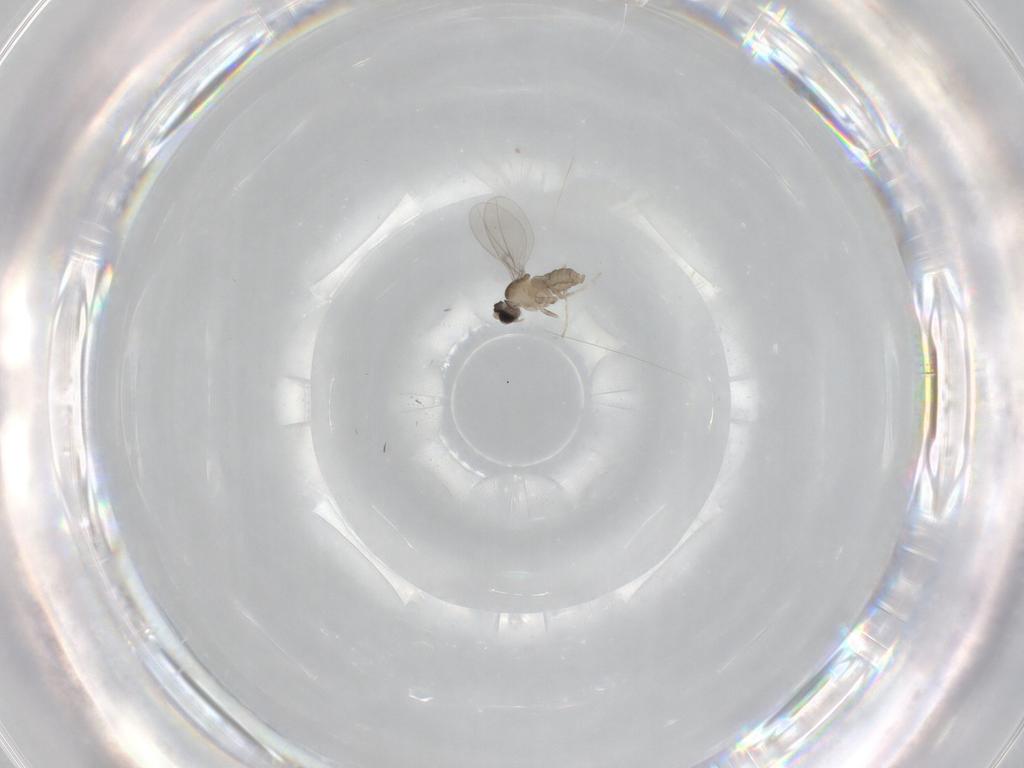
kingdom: Animalia
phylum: Arthropoda
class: Insecta
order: Diptera
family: Cecidomyiidae
